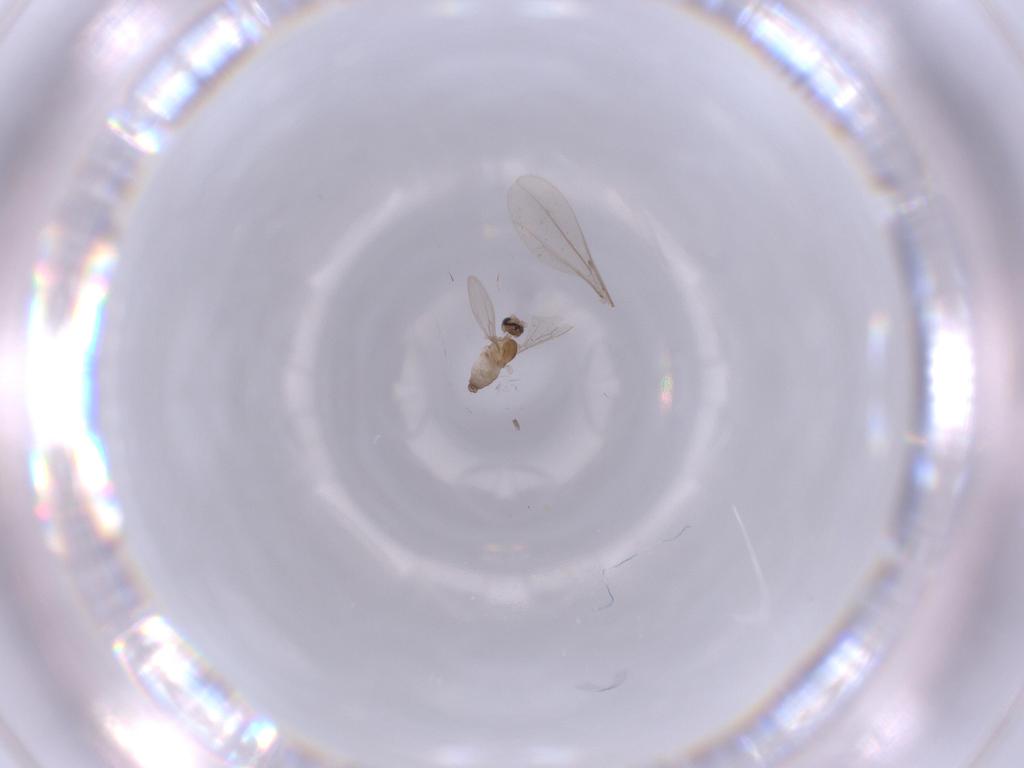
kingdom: Animalia
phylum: Arthropoda
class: Insecta
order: Diptera
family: Cecidomyiidae
